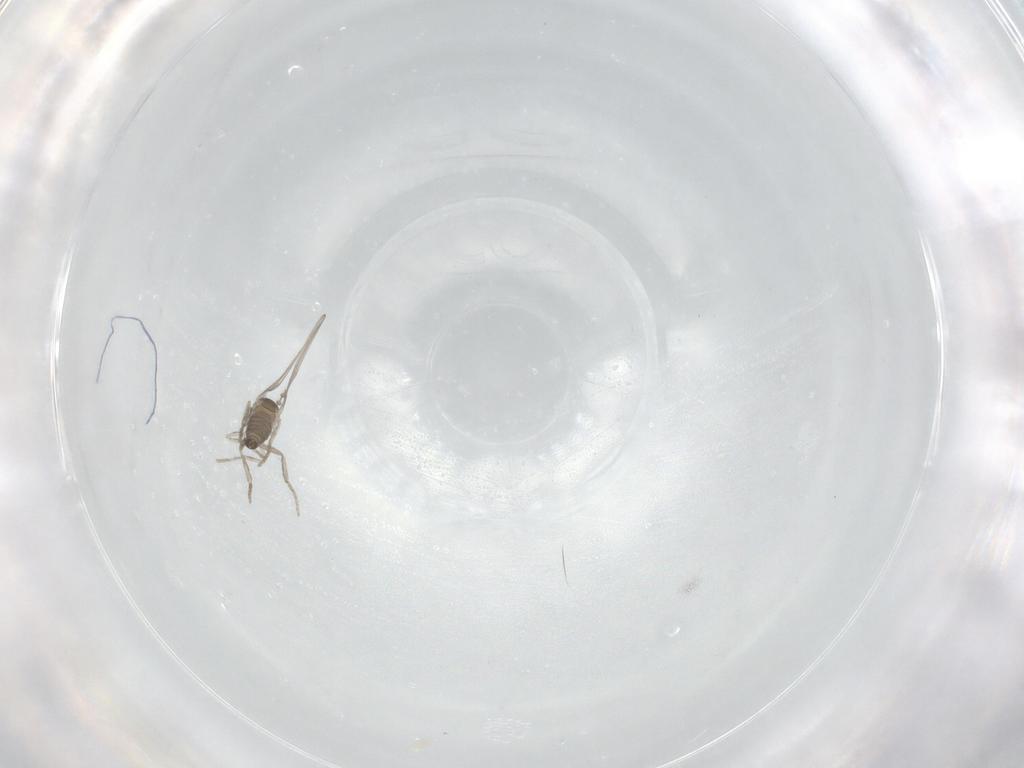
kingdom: Animalia
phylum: Arthropoda
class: Insecta
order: Diptera
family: Cecidomyiidae
